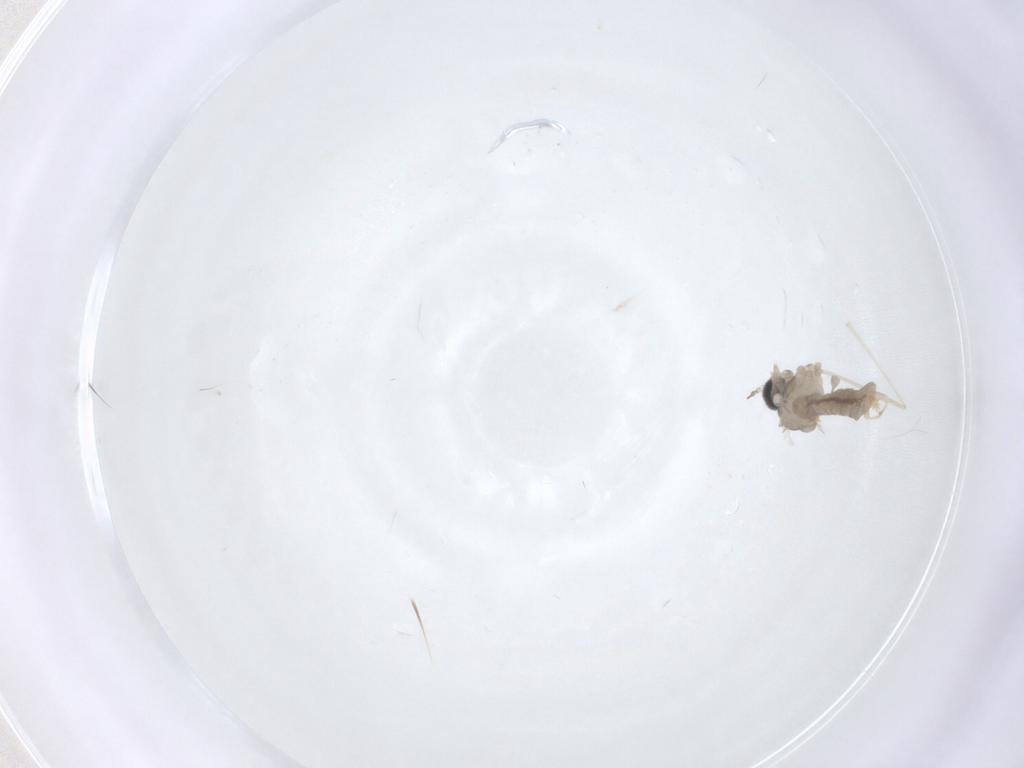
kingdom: Animalia
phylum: Arthropoda
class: Insecta
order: Diptera
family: Cecidomyiidae
